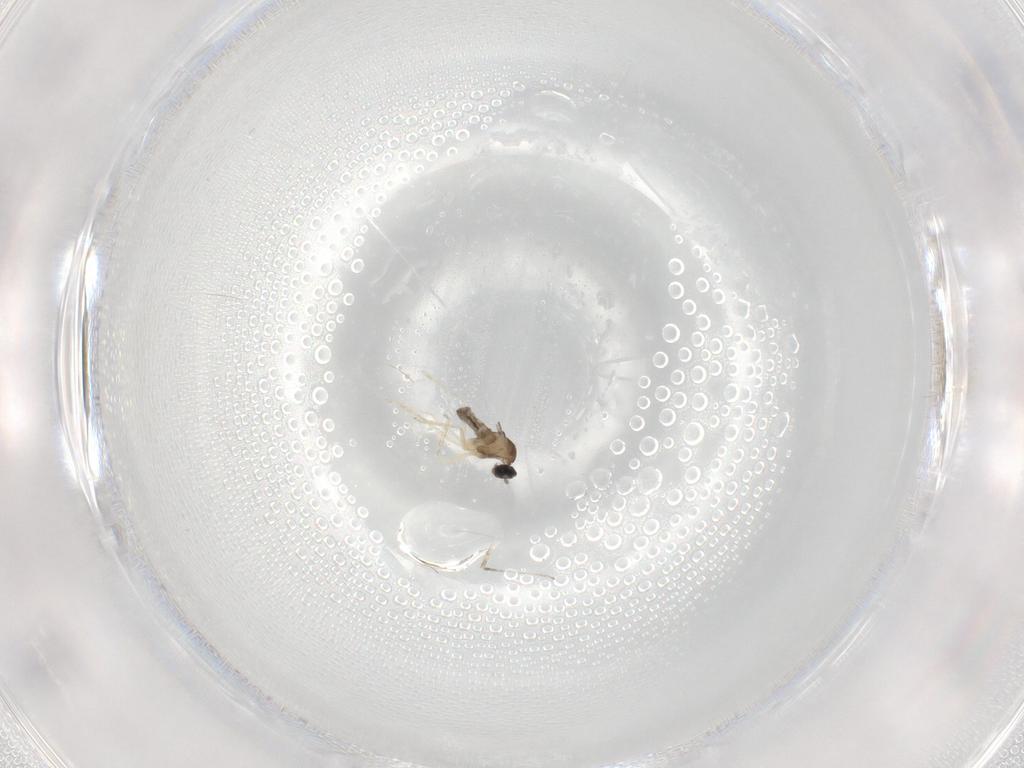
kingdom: Animalia
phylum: Arthropoda
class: Insecta
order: Diptera
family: Cecidomyiidae
